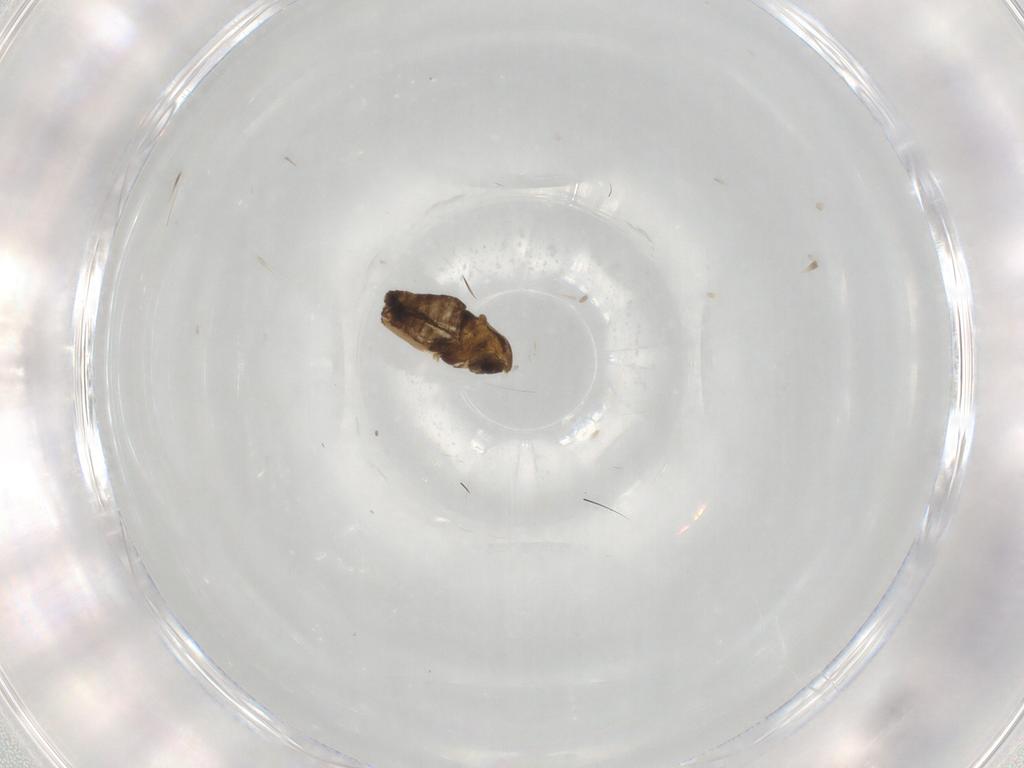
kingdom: Animalia
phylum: Arthropoda
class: Insecta
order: Diptera
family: Chironomidae
